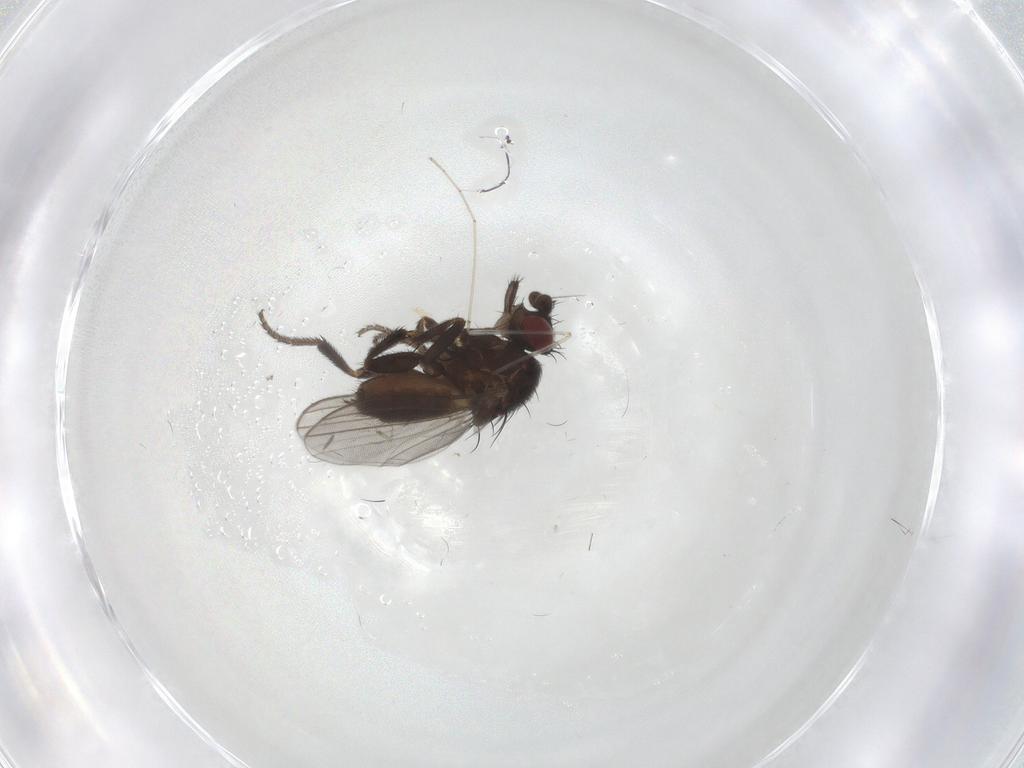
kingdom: Animalia
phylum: Arthropoda
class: Insecta
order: Diptera
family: Milichiidae
